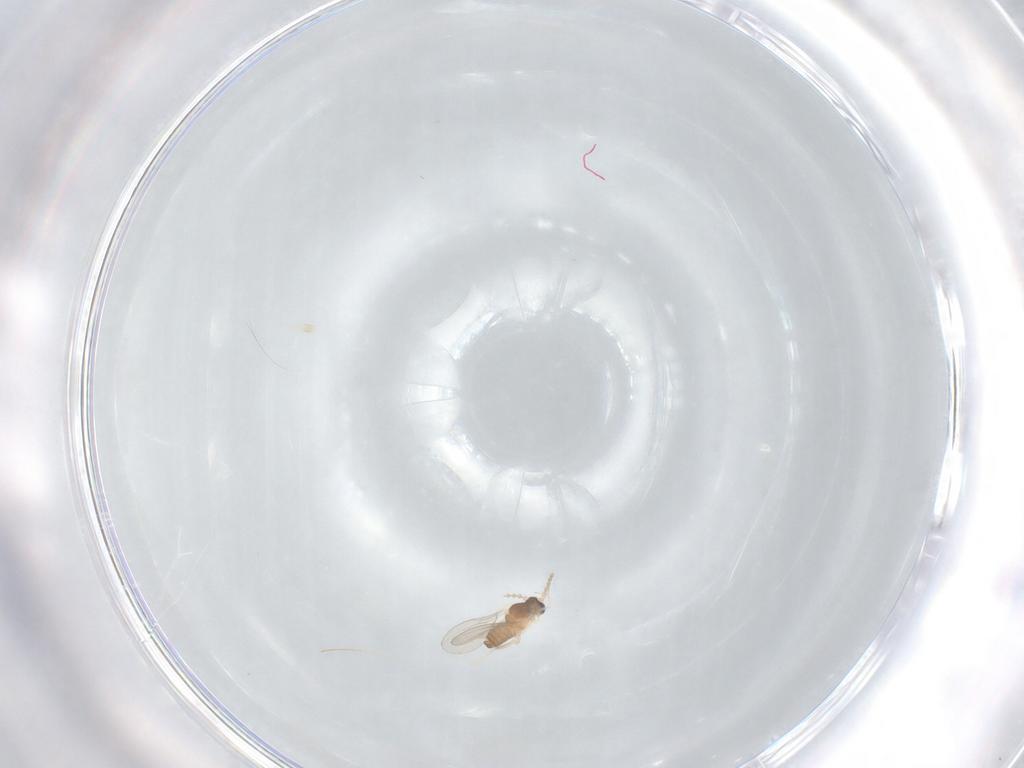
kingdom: Animalia
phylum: Arthropoda
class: Insecta
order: Diptera
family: Cecidomyiidae
